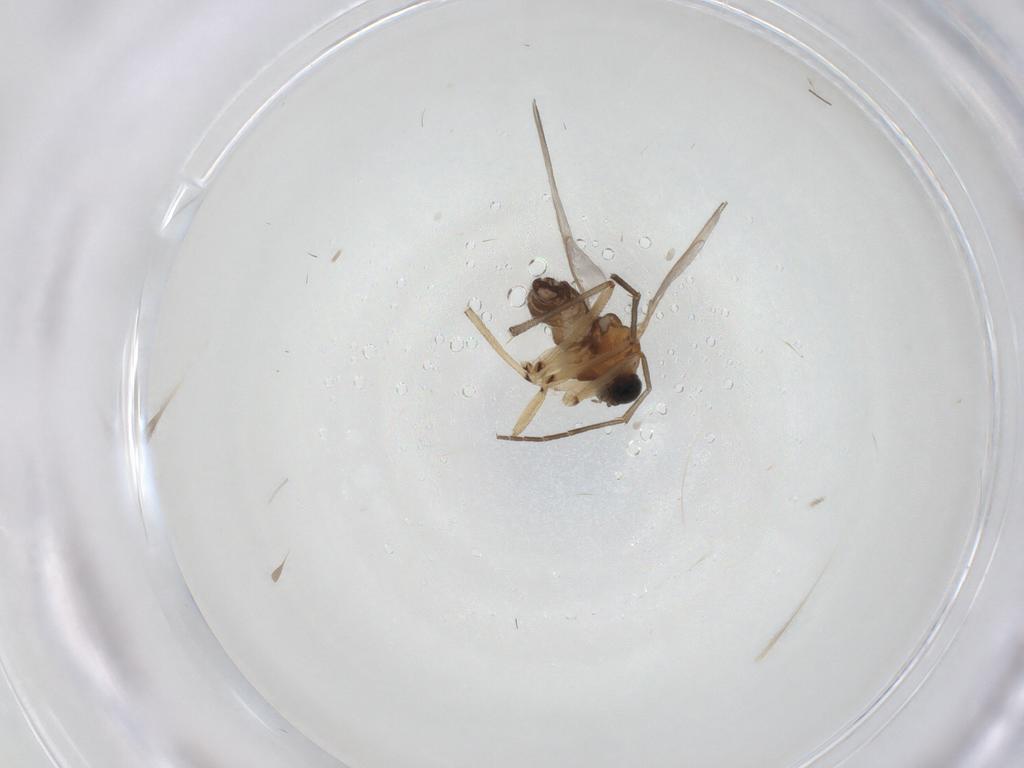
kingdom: Animalia
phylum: Arthropoda
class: Insecta
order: Diptera
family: Cecidomyiidae
